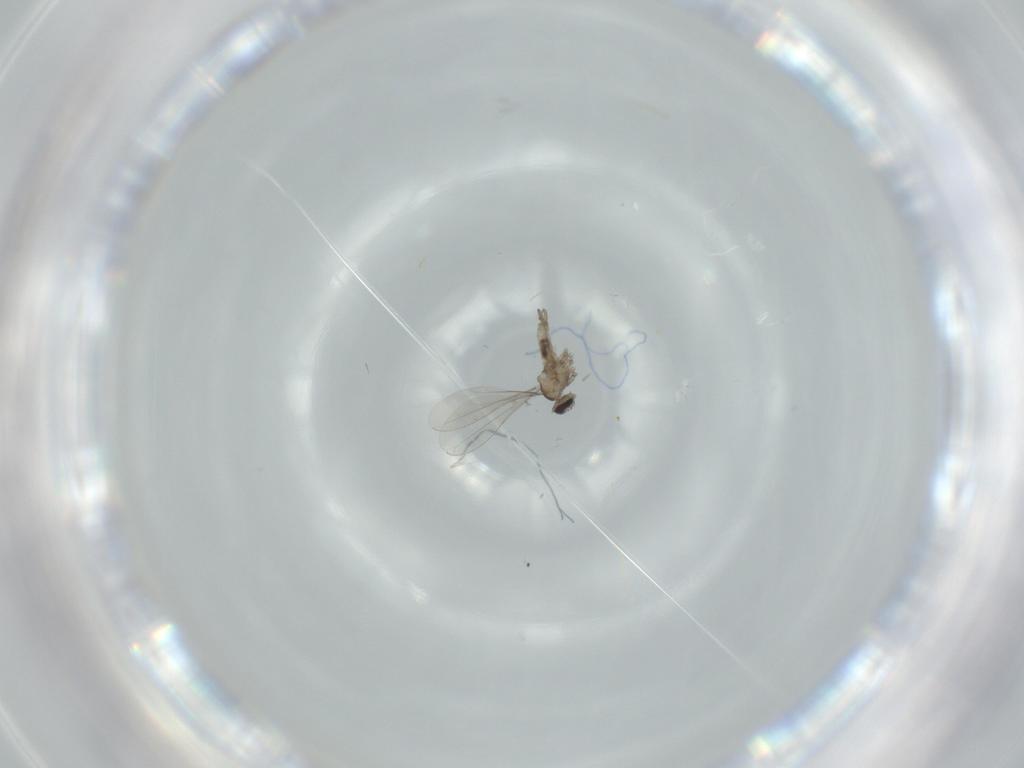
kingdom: Animalia
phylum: Arthropoda
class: Insecta
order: Diptera
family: Cecidomyiidae
